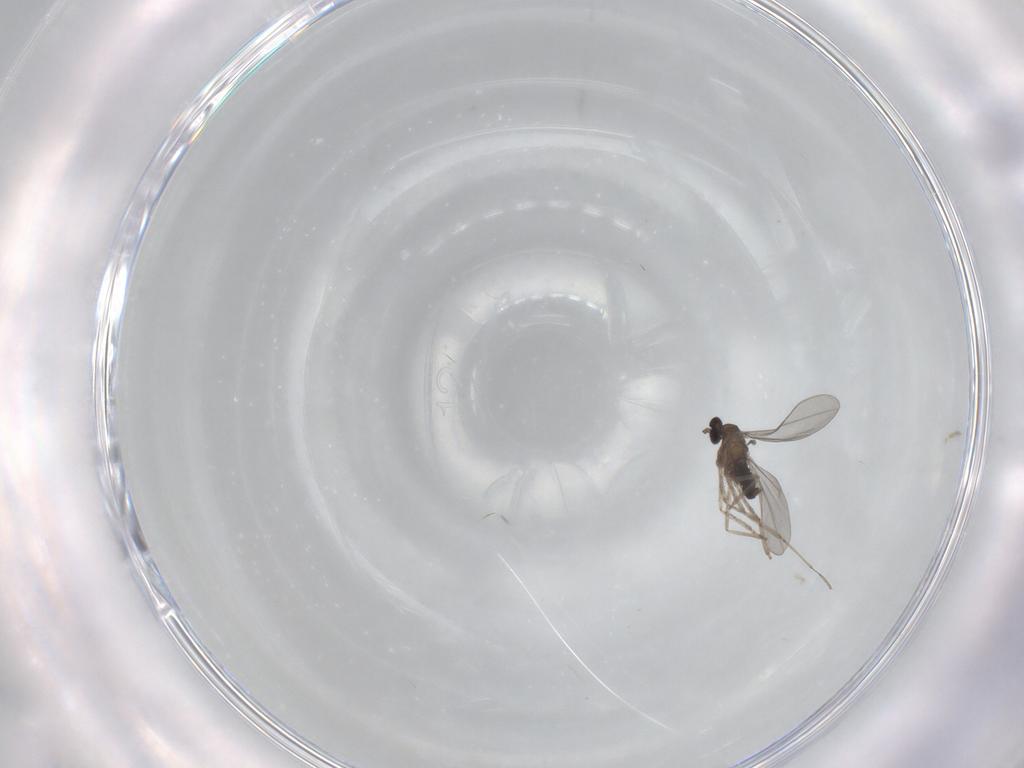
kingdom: Animalia
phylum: Arthropoda
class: Insecta
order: Diptera
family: Cecidomyiidae
